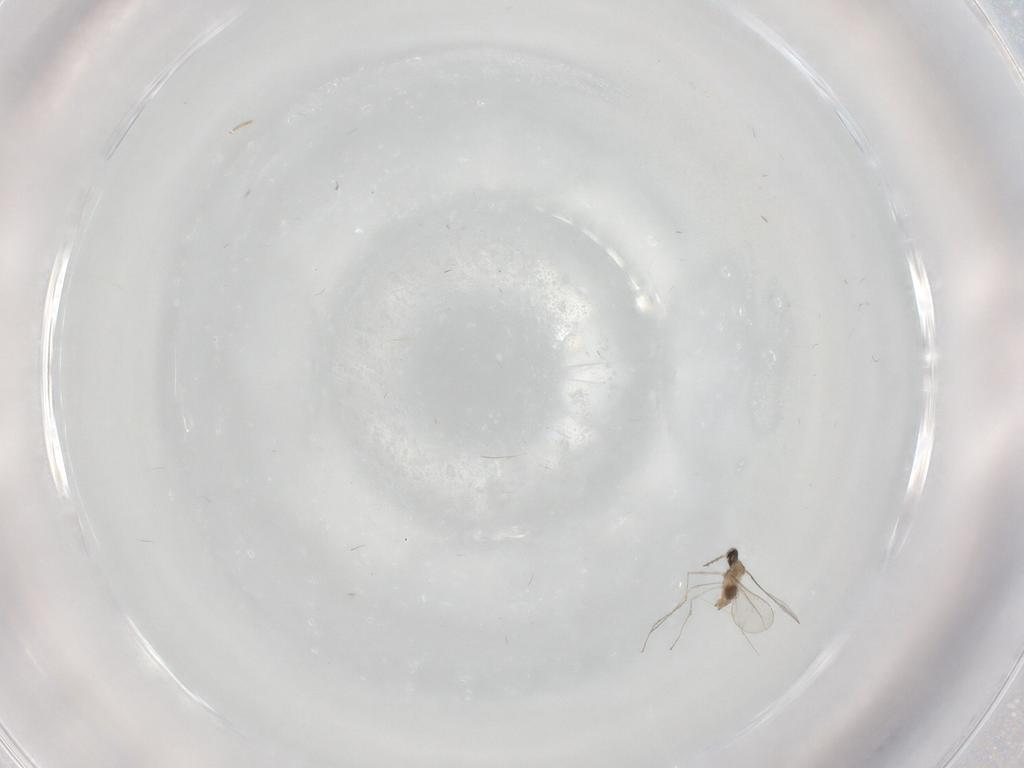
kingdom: Animalia
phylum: Arthropoda
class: Insecta
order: Diptera
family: Cecidomyiidae
